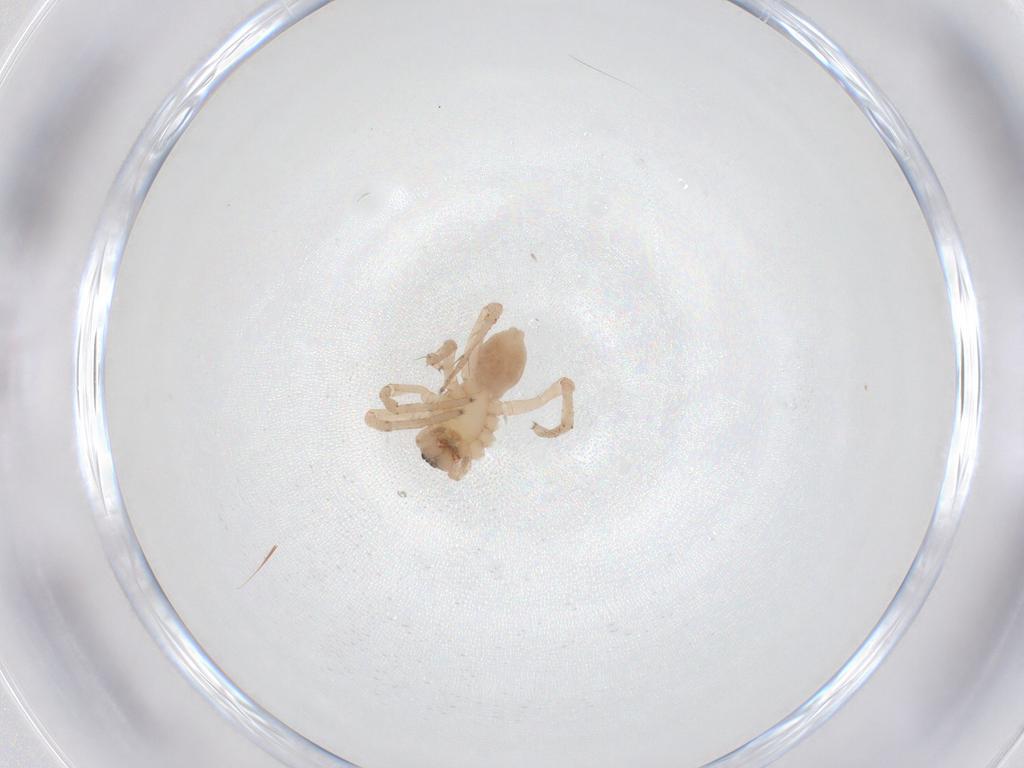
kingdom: Animalia
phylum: Arthropoda
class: Arachnida
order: Araneae
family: Anyphaenidae
